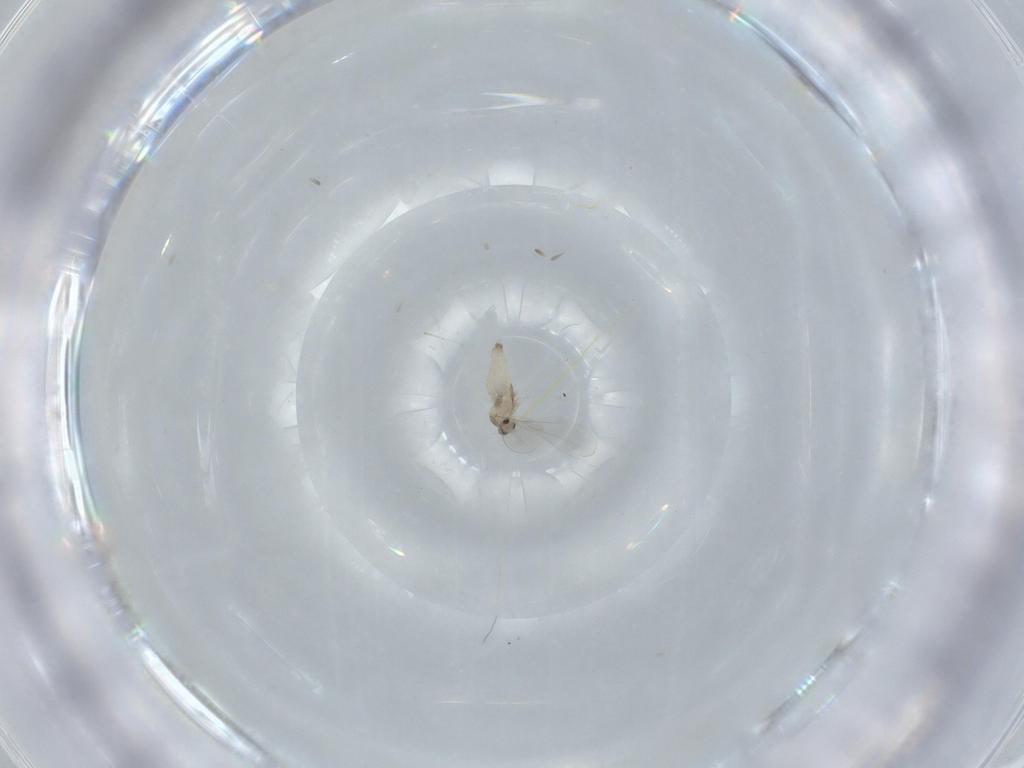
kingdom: Animalia
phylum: Arthropoda
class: Insecta
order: Diptera
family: Cecidomyiidae
